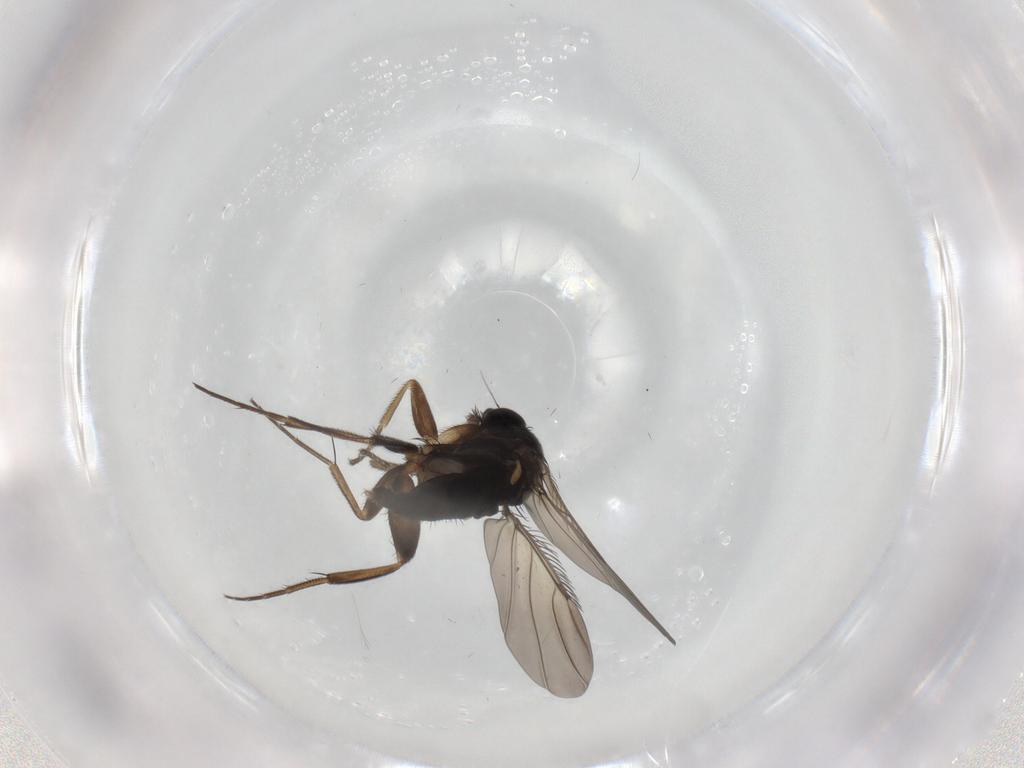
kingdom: Animalia
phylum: Arthropoda
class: Insecta
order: Diptera
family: Phoridae
